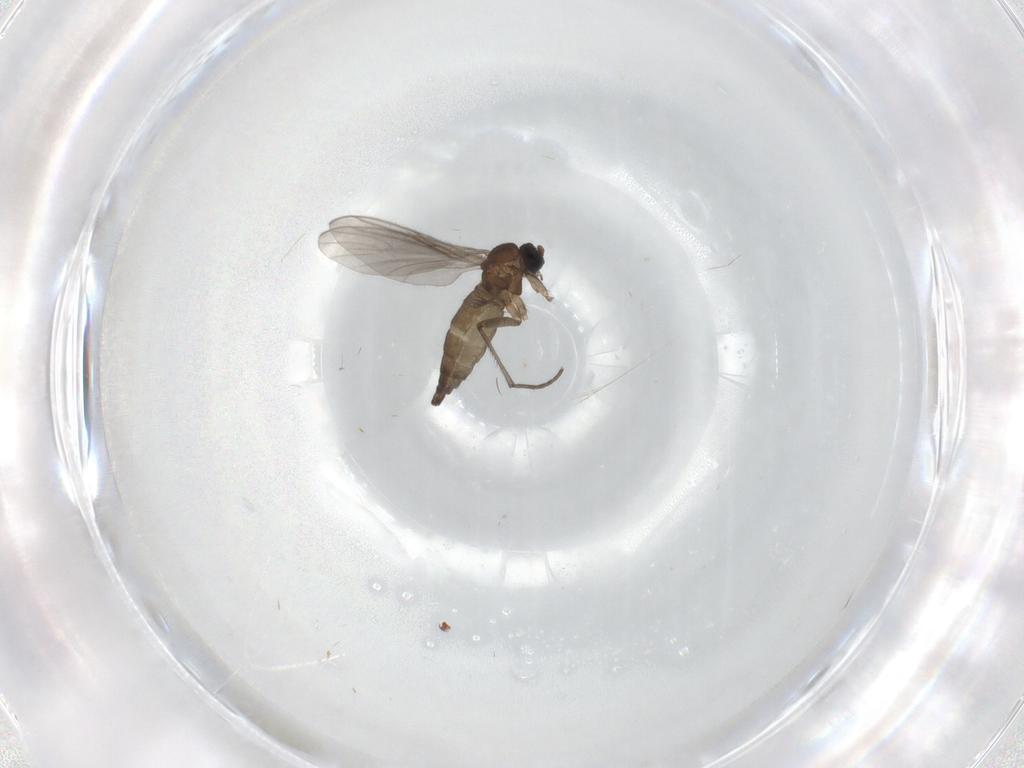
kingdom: Animalia
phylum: Arthropoda
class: Insecta
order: Diptera
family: Sciaridae
